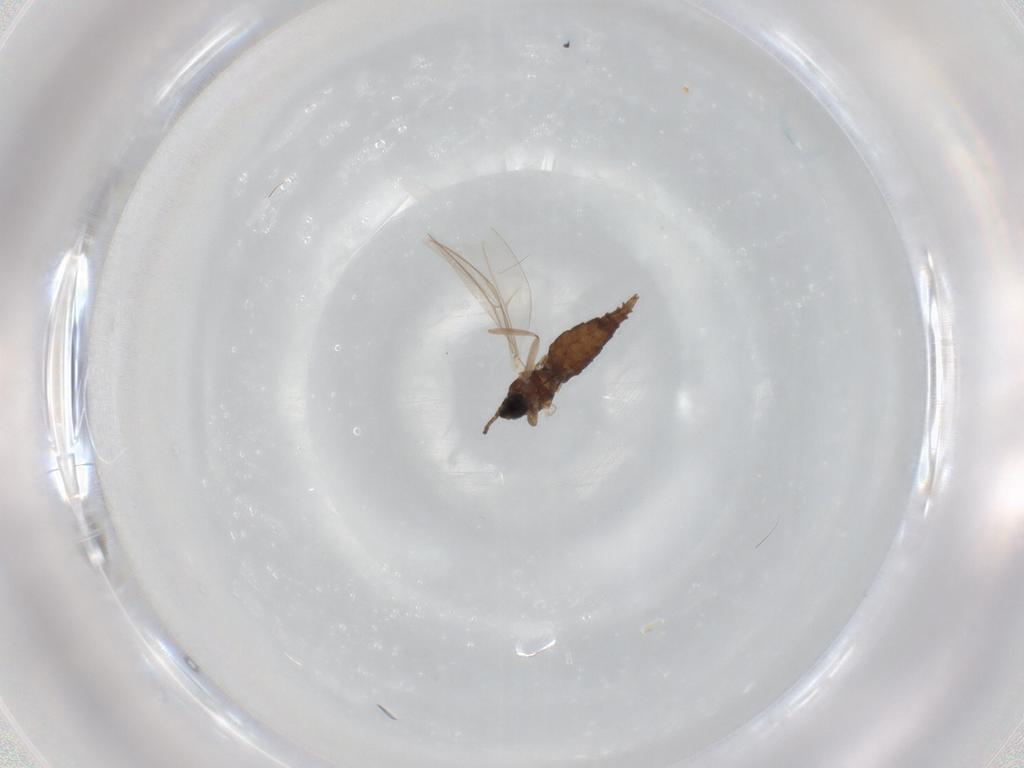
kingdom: Animalia
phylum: Arthropoda
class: Insecta
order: Diptera
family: Cecidomyiidae
